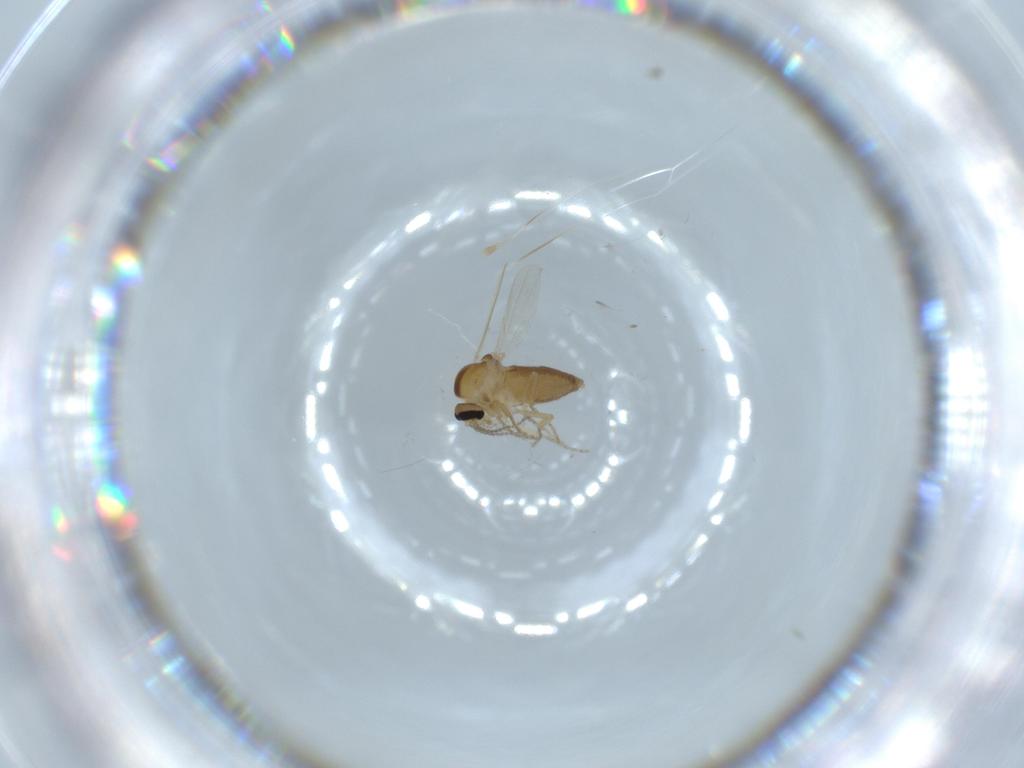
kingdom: Animalia
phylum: Arthropoda
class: Insecta
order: Diptera
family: Ceratopogonidae
